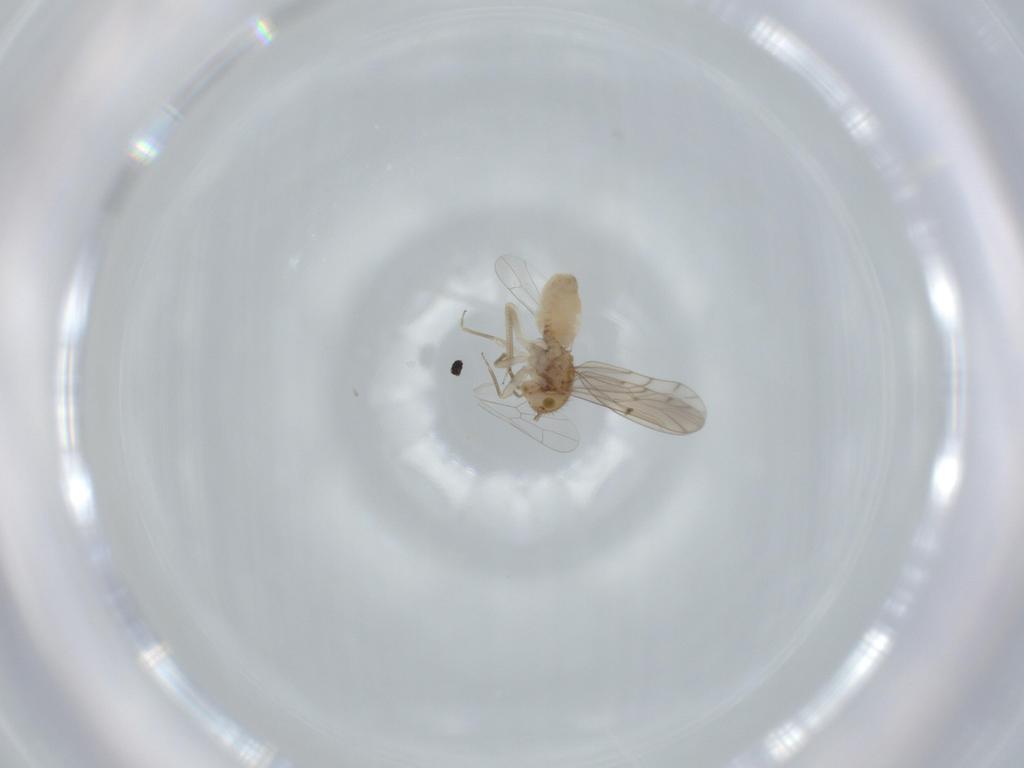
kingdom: Animalia
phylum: Arthropoda
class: Insecta
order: Psocodea
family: Ectopsocidae
